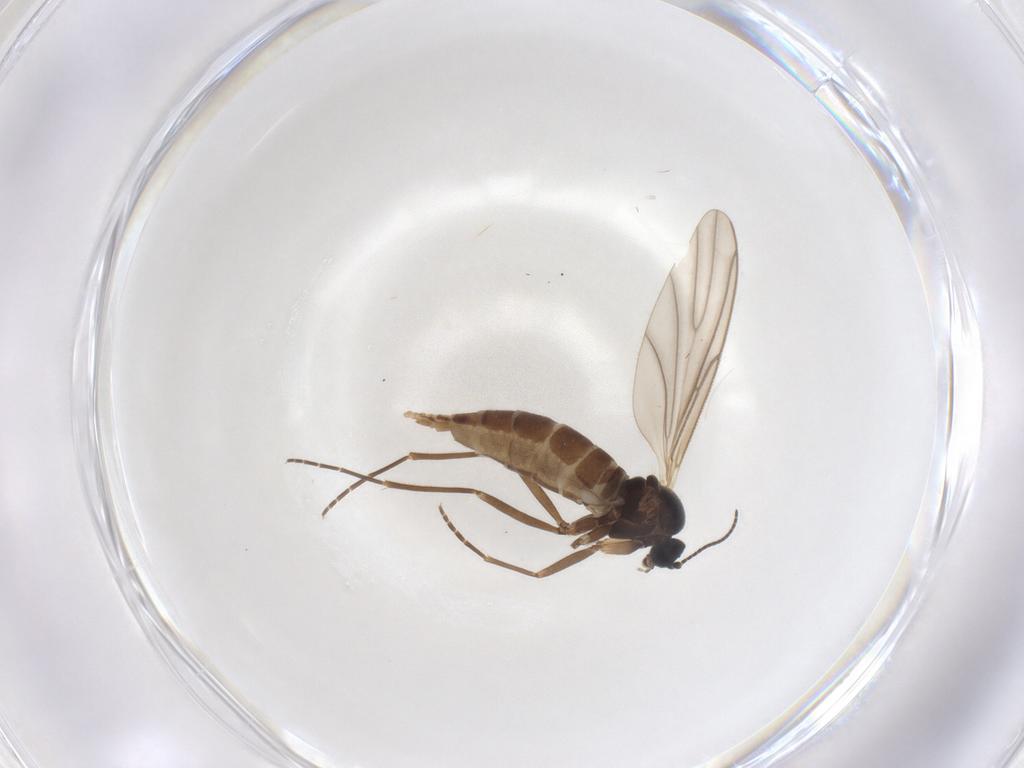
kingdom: Animalia
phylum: Arthropoda
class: Insecta
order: Diptera
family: Sciaridae
